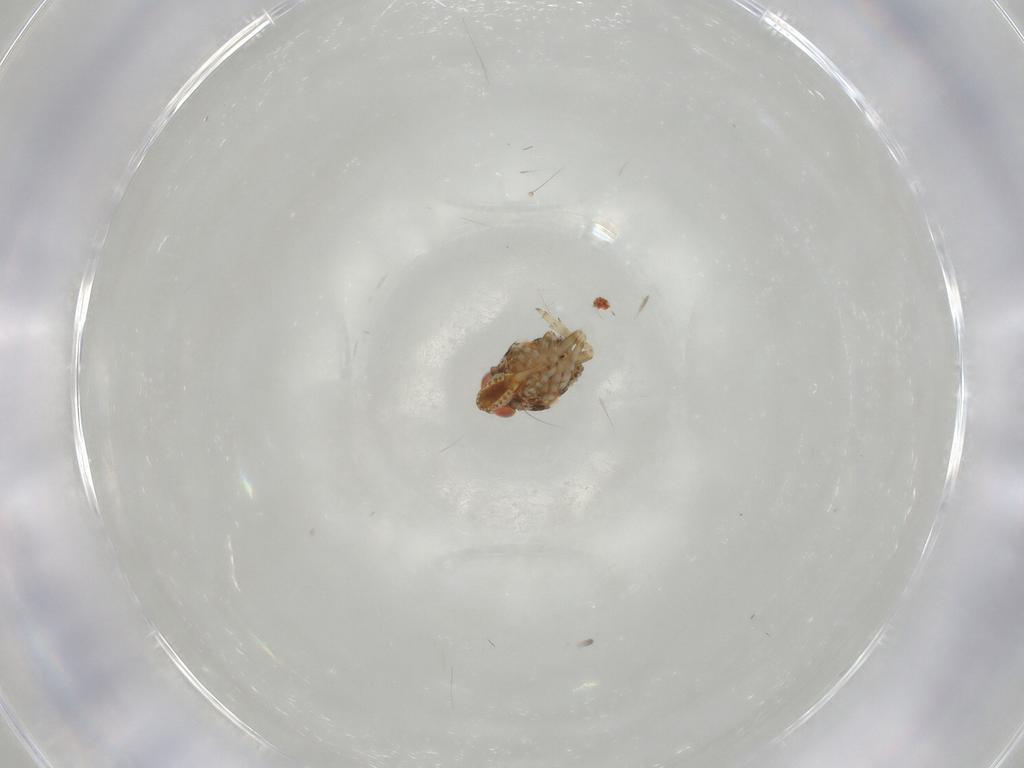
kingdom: Animalia
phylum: Arthropoda
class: Insecta
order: Hemiptera
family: Fulgoroidea_incertae_sedis
